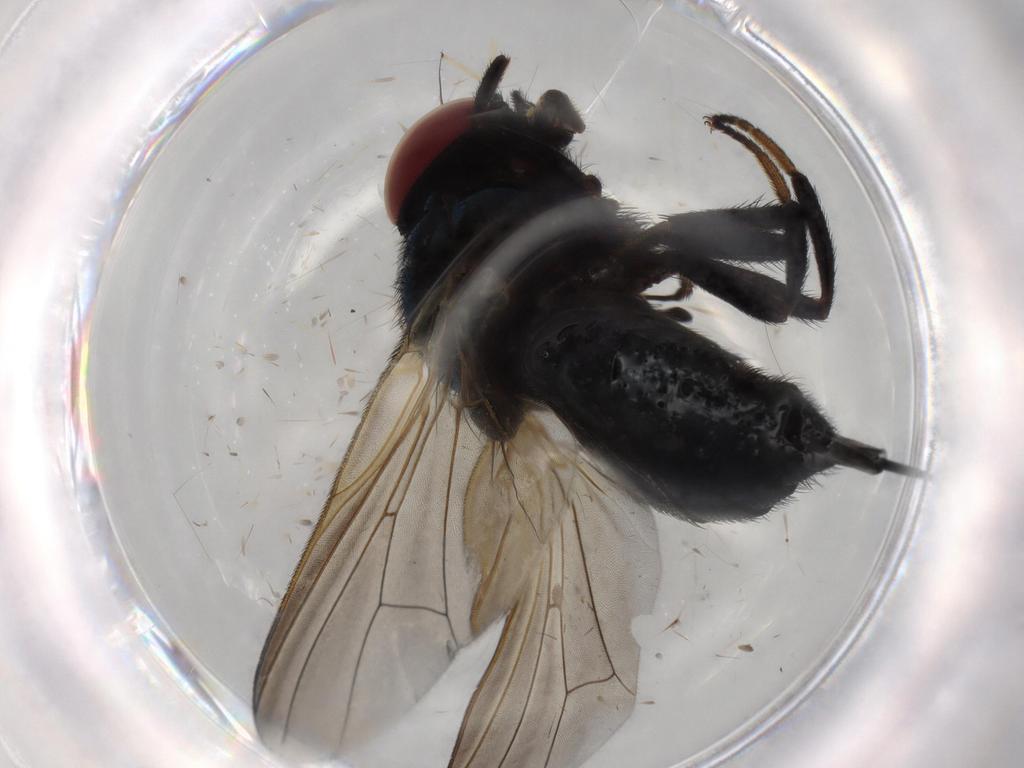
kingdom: Animalia
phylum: Arthropoda
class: Insecta
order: Diptera
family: Lonchaeidae
